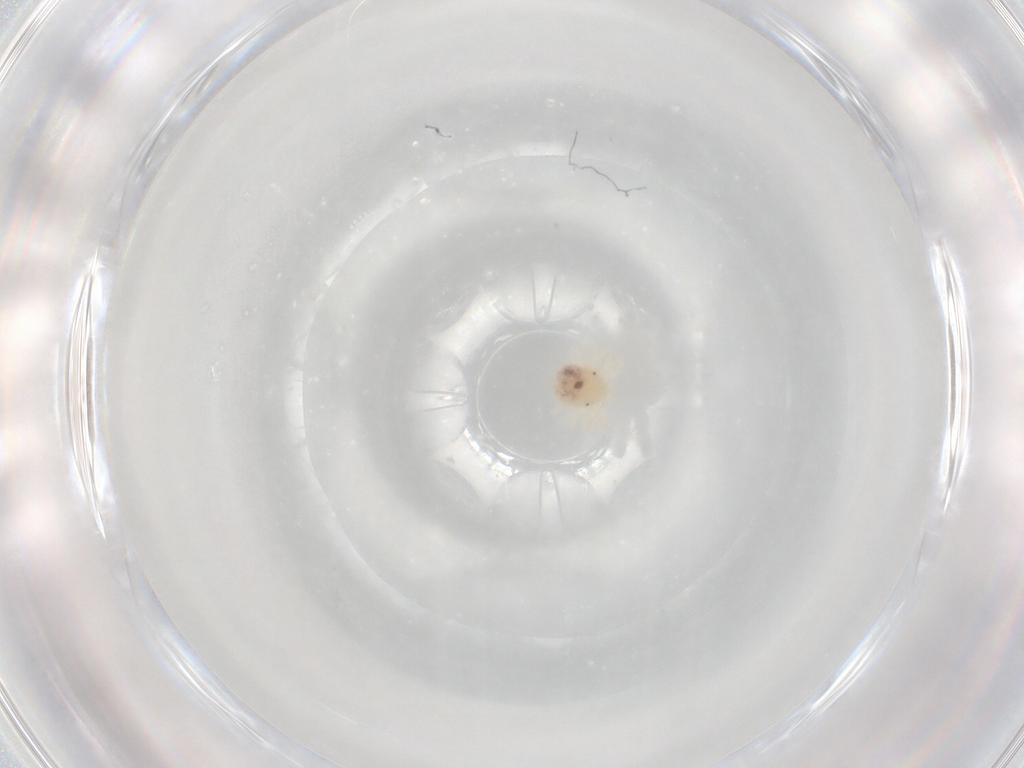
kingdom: Animalia
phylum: Arthropoda
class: Arachnida
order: Trombidiformes
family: Anystidae
